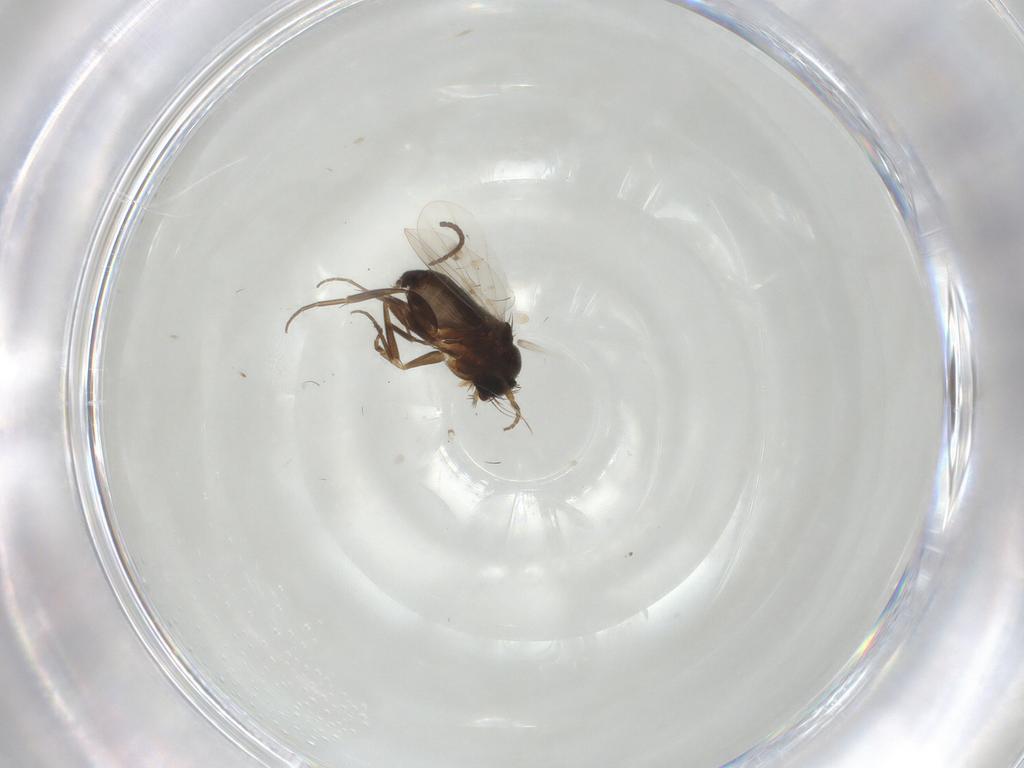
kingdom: Animalia
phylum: Arthropoda
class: Insecta
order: Diptera
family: Phoridae
